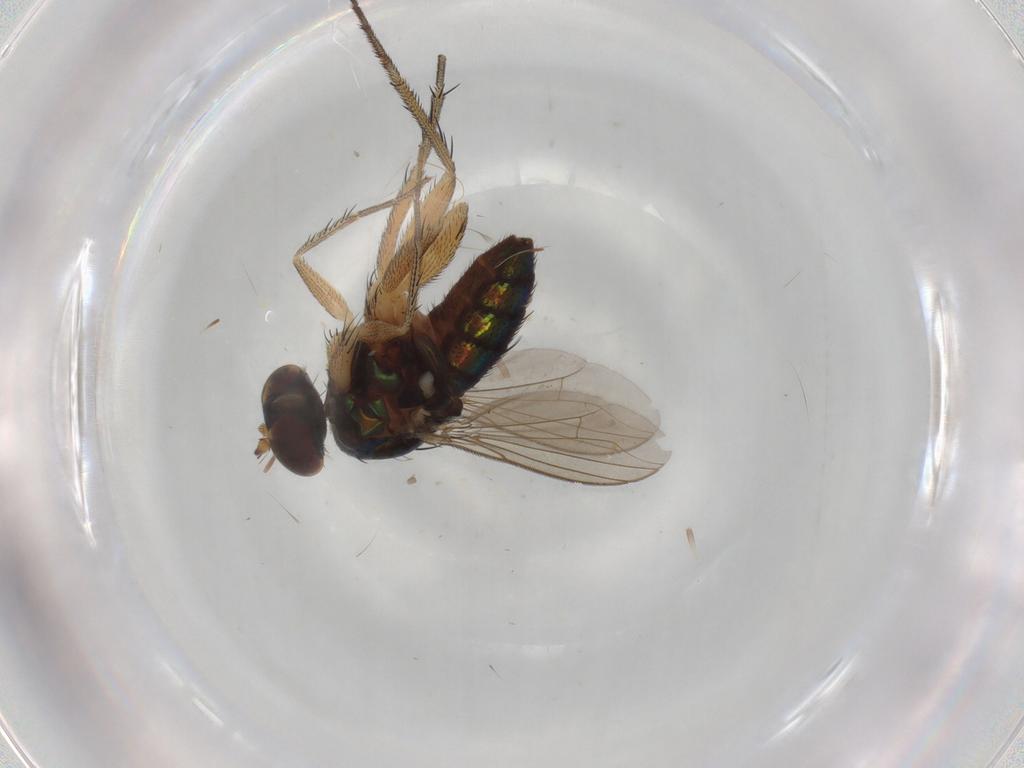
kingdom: Animalia
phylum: Arthropoda
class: Insecta
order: Diptera
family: Dolichopodidae
